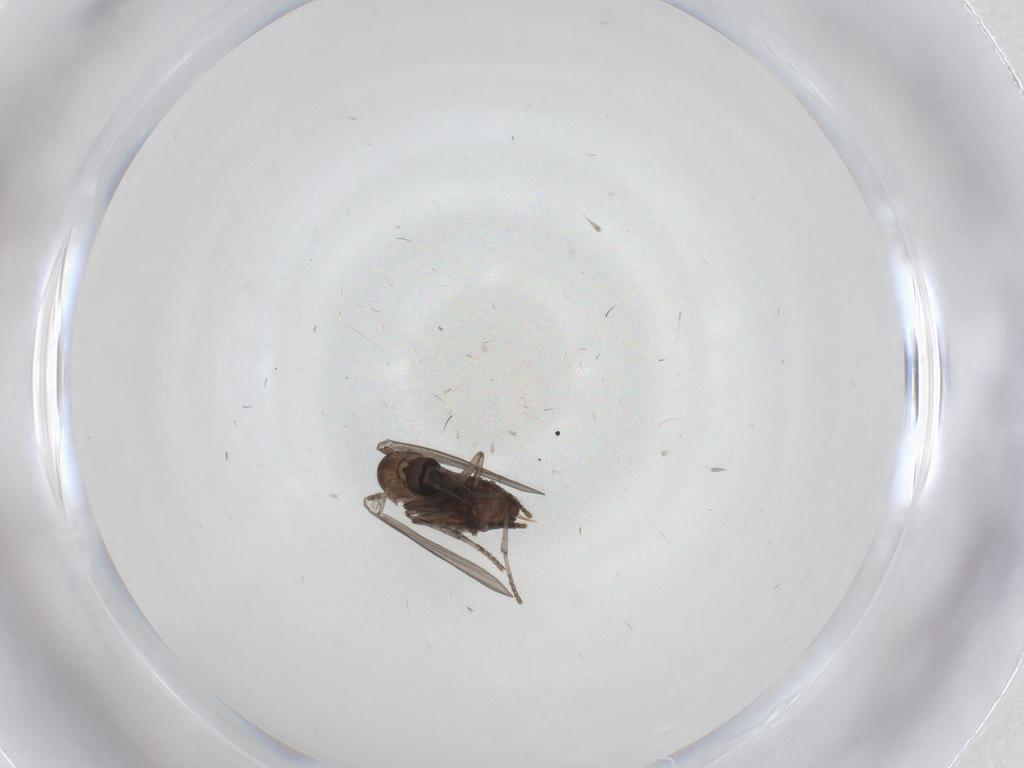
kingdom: Animalia
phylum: Arthropoda
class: Insecta
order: Diptera
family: Psychodidae
